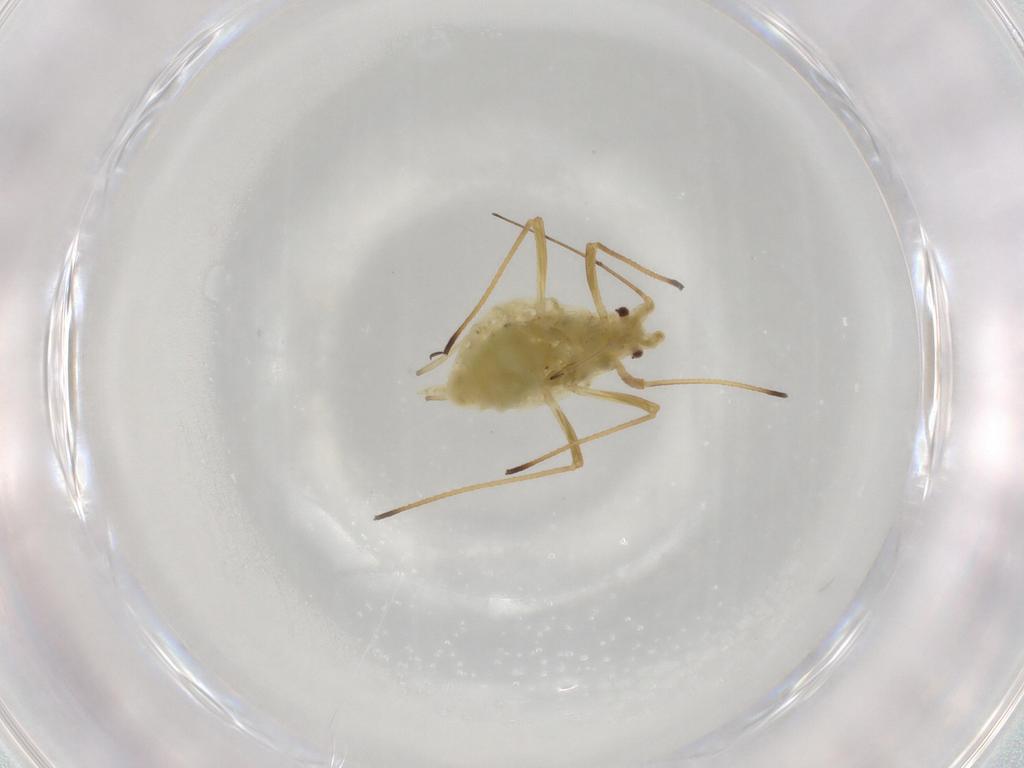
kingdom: Animalia
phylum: Arthropoda
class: Insecta
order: Hemiptera
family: Aphididae
